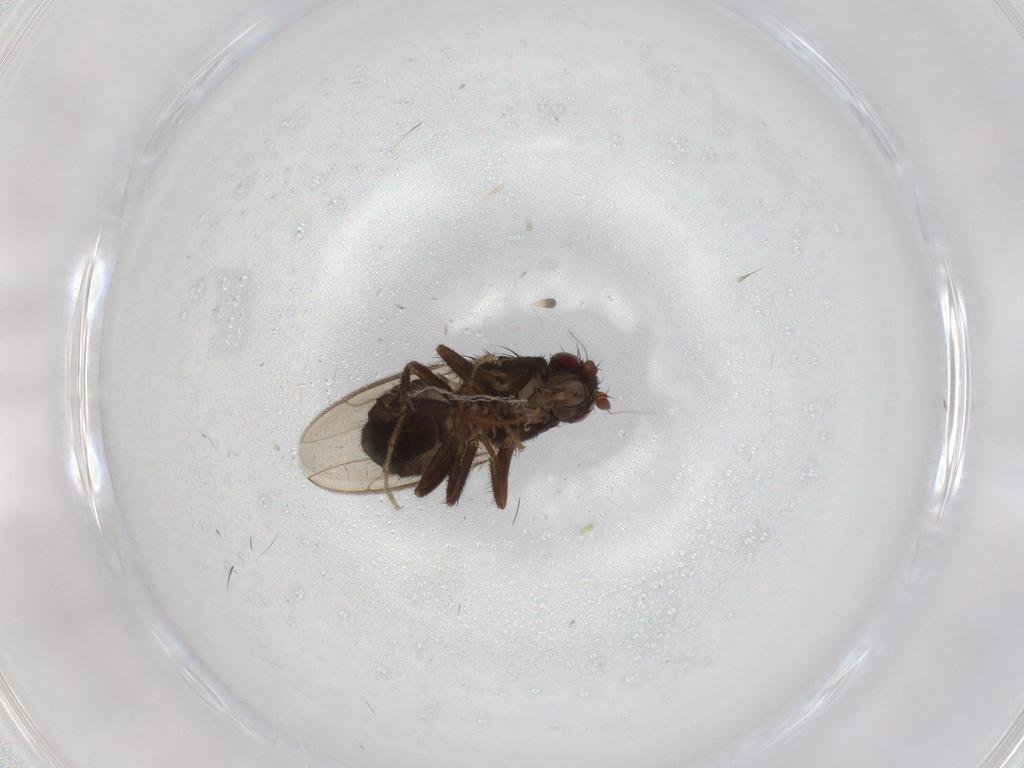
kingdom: Animalia
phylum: Arthropoda
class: Insecta
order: Diptera
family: Sphaeroceridae
